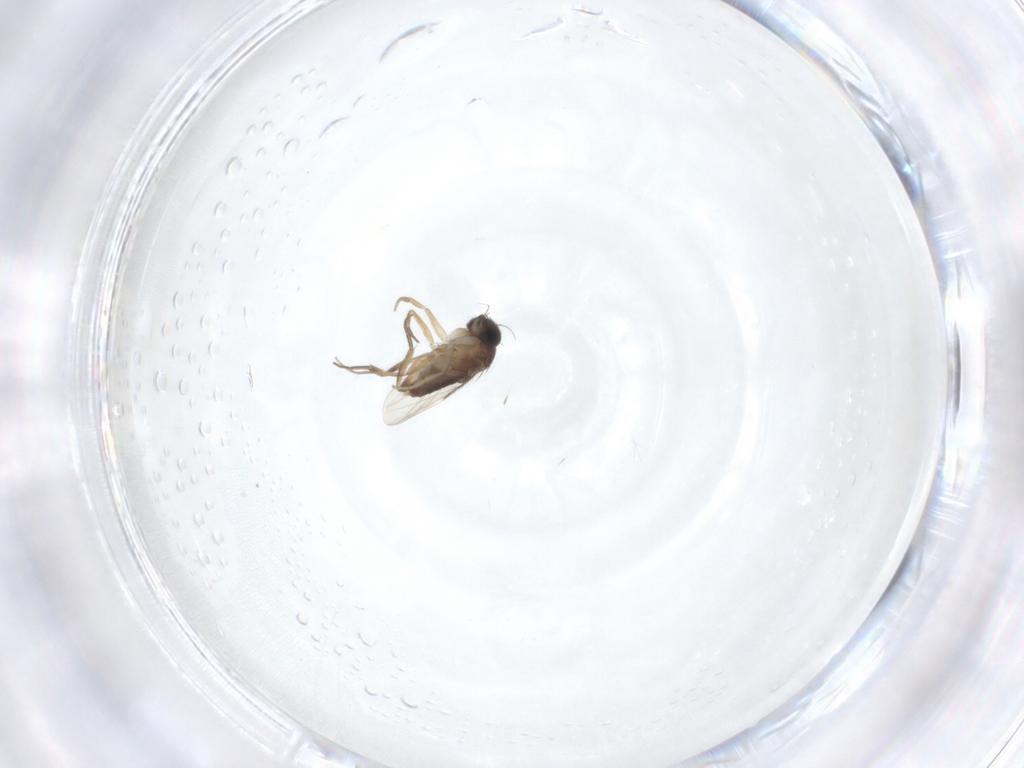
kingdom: Animalia
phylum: Arthropoda
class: Insecta
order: Diptera
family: Phoridae
